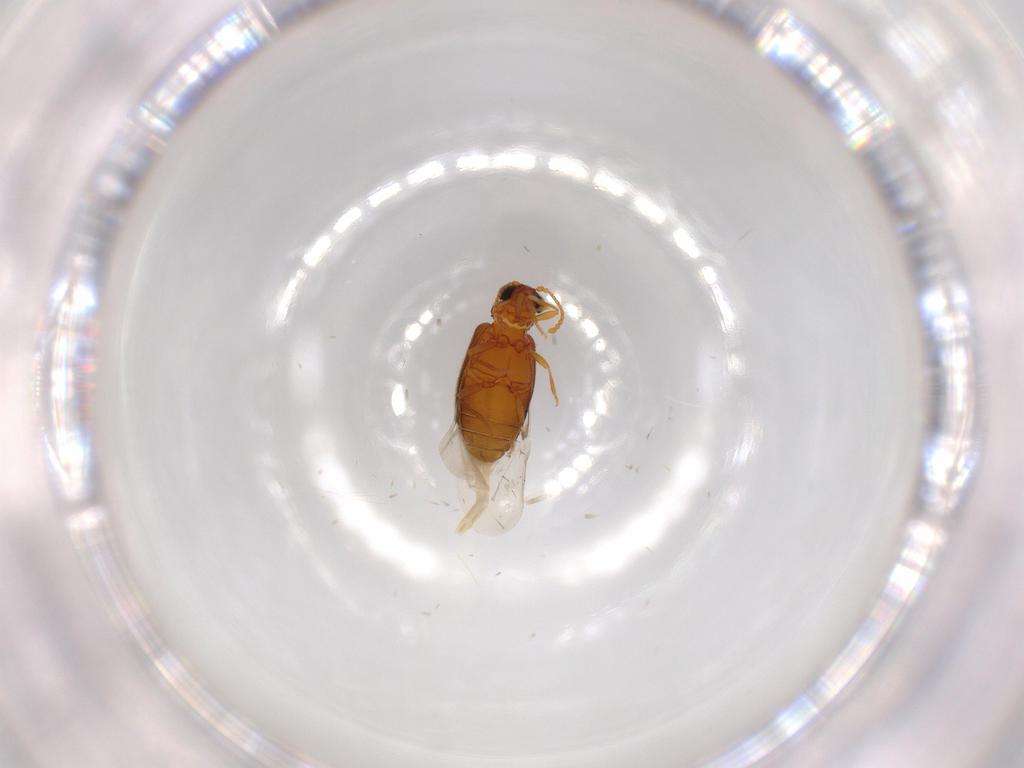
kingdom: Animalia
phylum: Arthropoda
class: Insecta
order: Coleoptera
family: Aderidae
